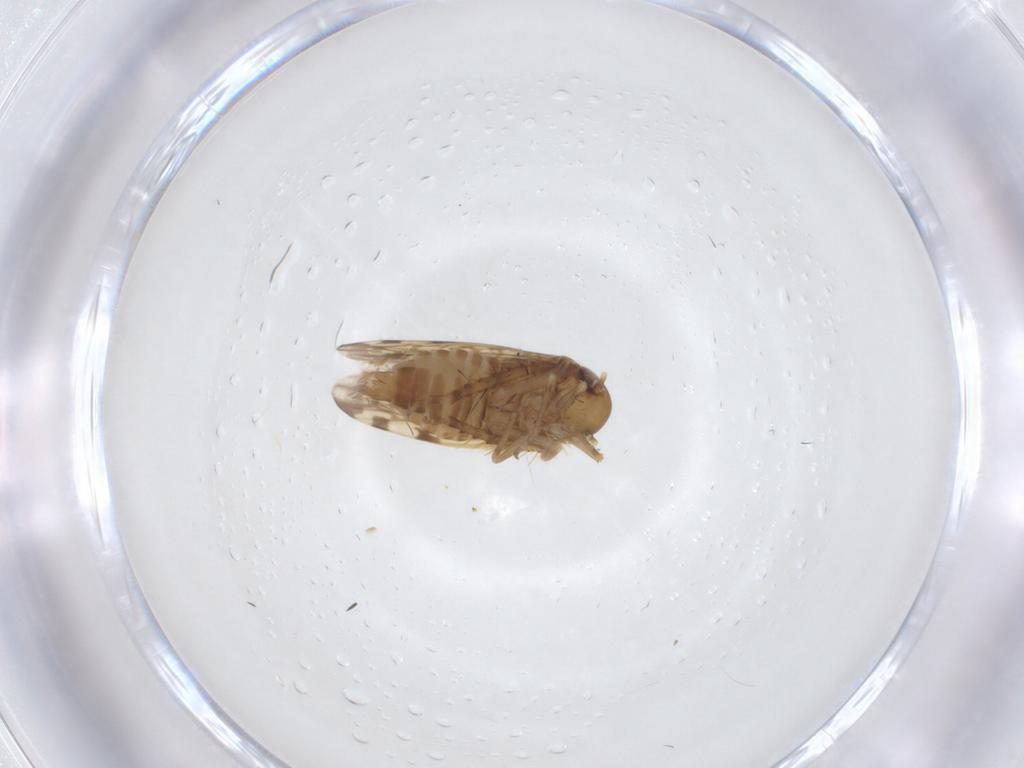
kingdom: Animalia
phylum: Arthropoda
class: Insecta
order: Hemiptera
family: Cicadellidae
